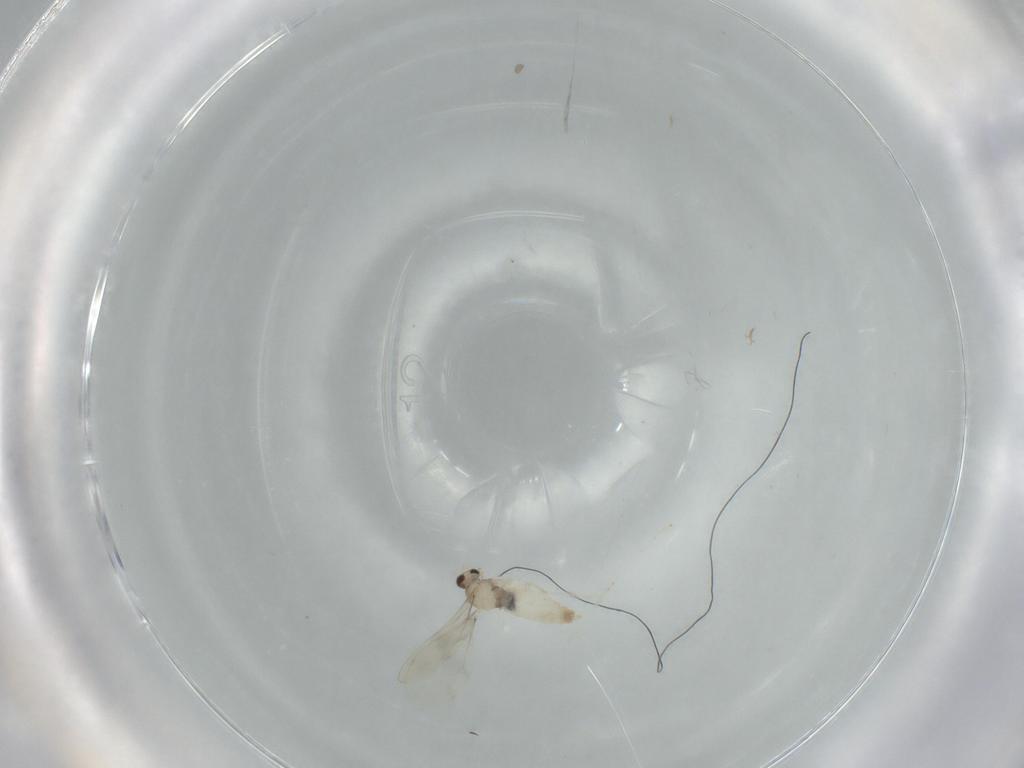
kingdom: Animalia
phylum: Arthropoda
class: Insecta
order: Diptera
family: Cecidomyiidae
